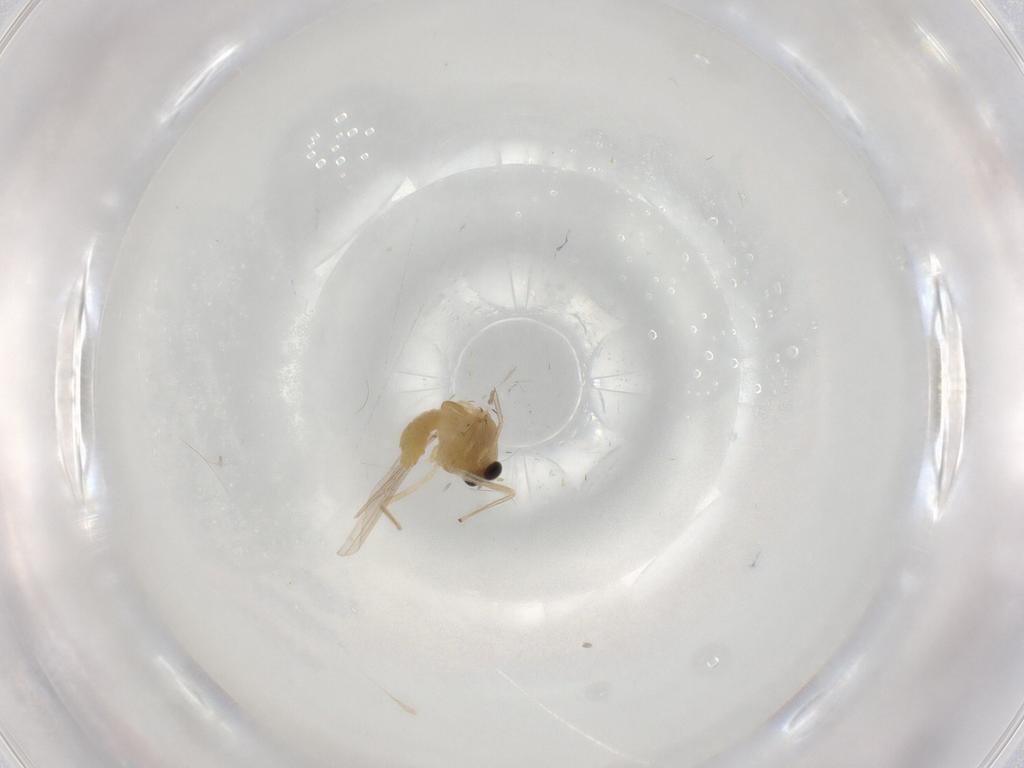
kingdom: Animalia
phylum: Arthropoda
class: Insecta
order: Diptera
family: Chironomidae
